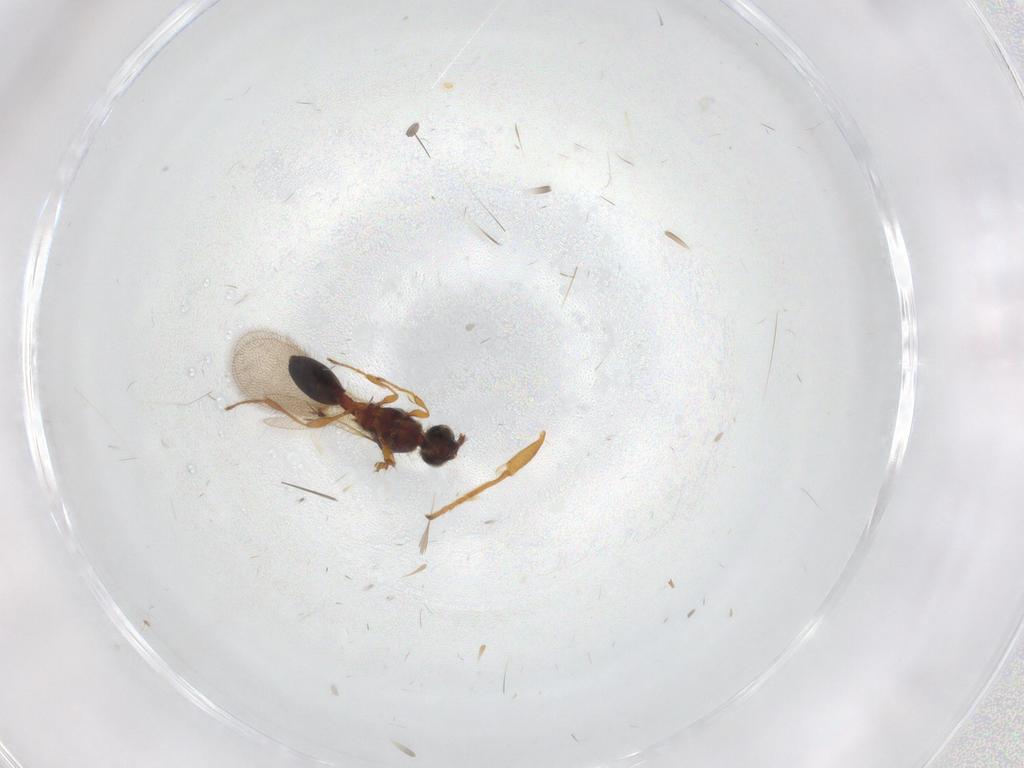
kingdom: Animalia
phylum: Arthropoda
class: Insecta
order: Hymenoptera
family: Diapriidae
